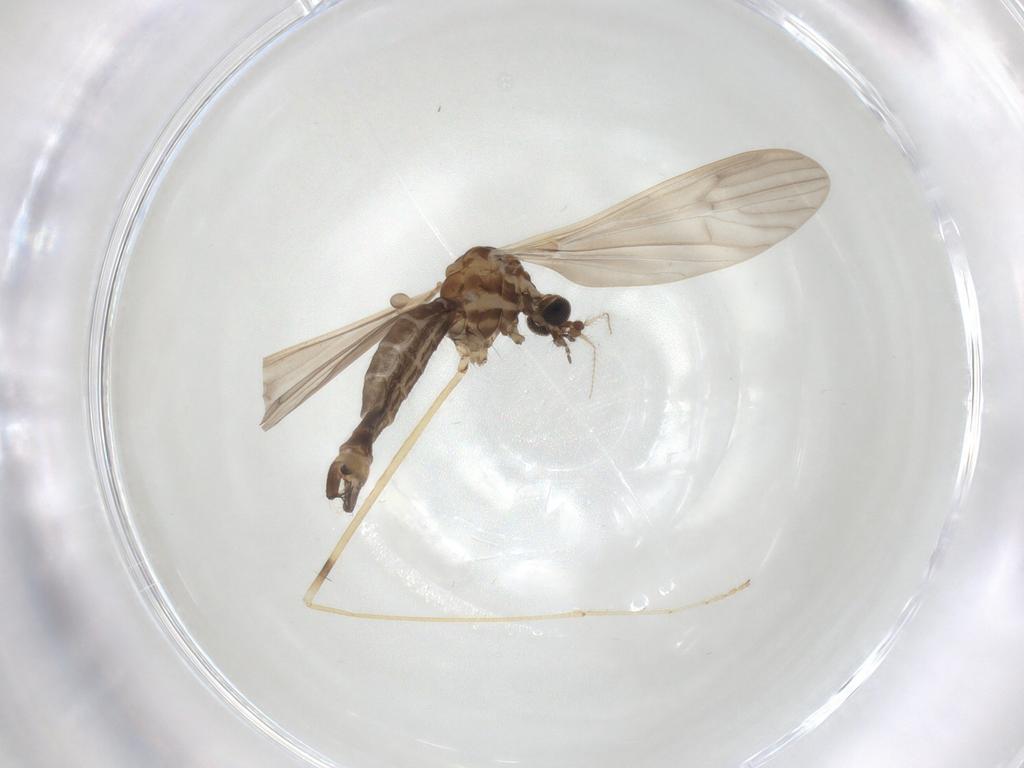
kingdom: Animalia
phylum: Arthropoda
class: Insecta
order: Diptera
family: Limoniidae
